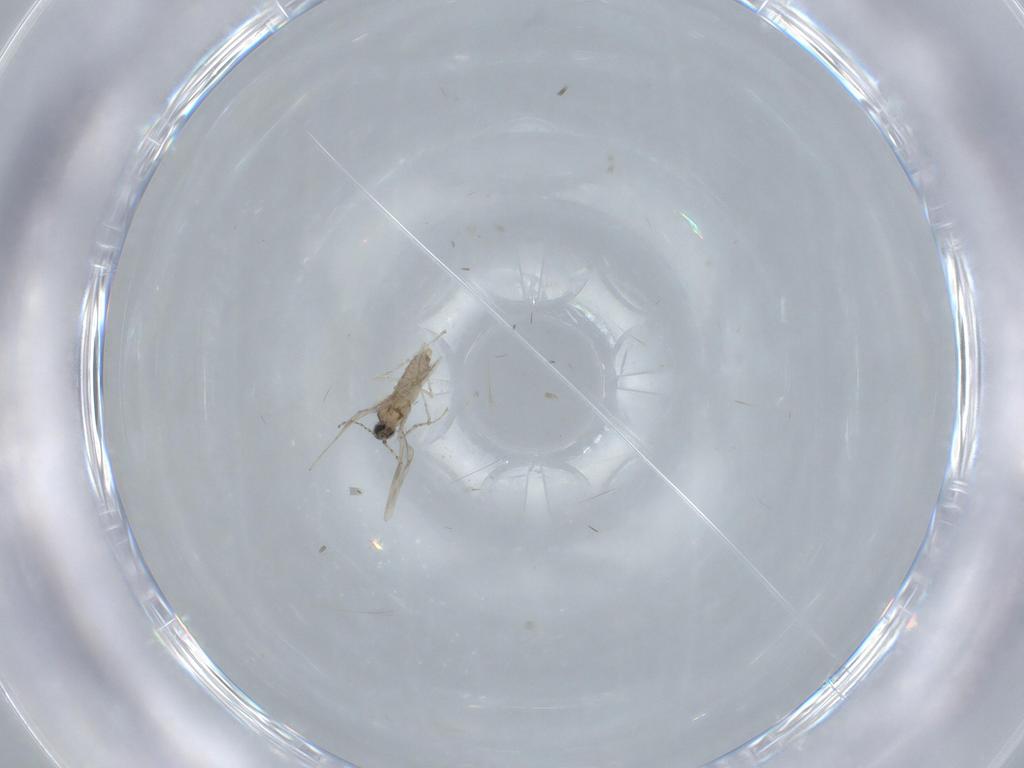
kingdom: Animalia
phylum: Arthropoda
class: Insecta
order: Diptera
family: Cecidomyiidae
